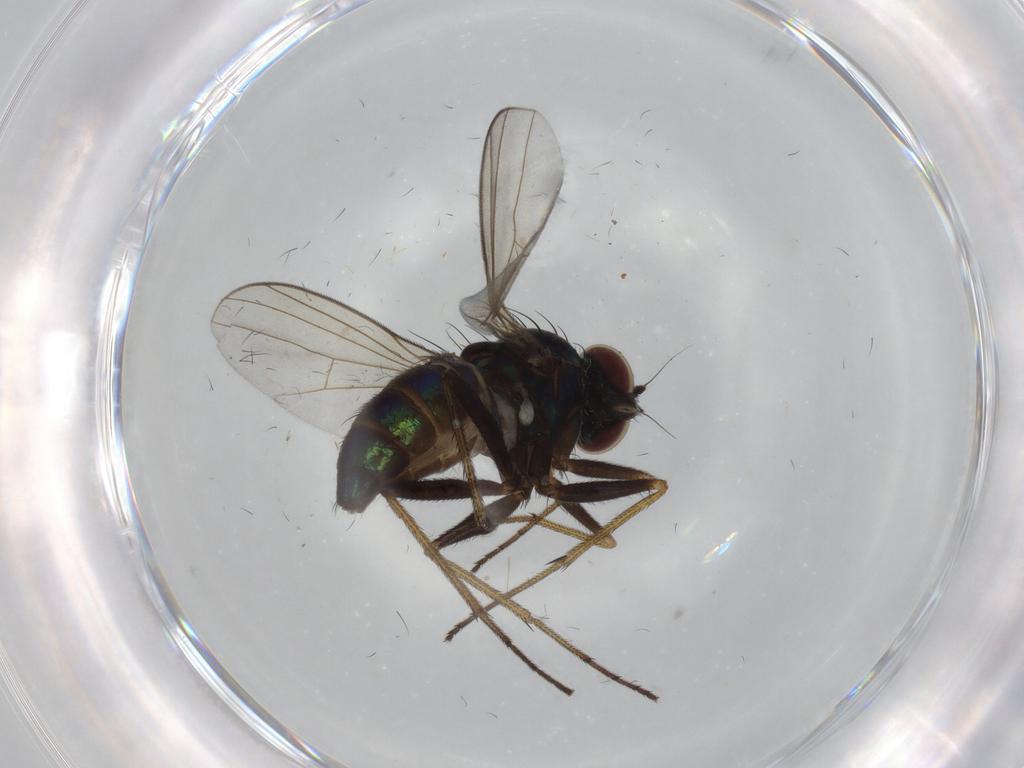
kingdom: Animalia
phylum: Arthropoda
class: Insecta
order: Diptera
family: Dolichopodidae
